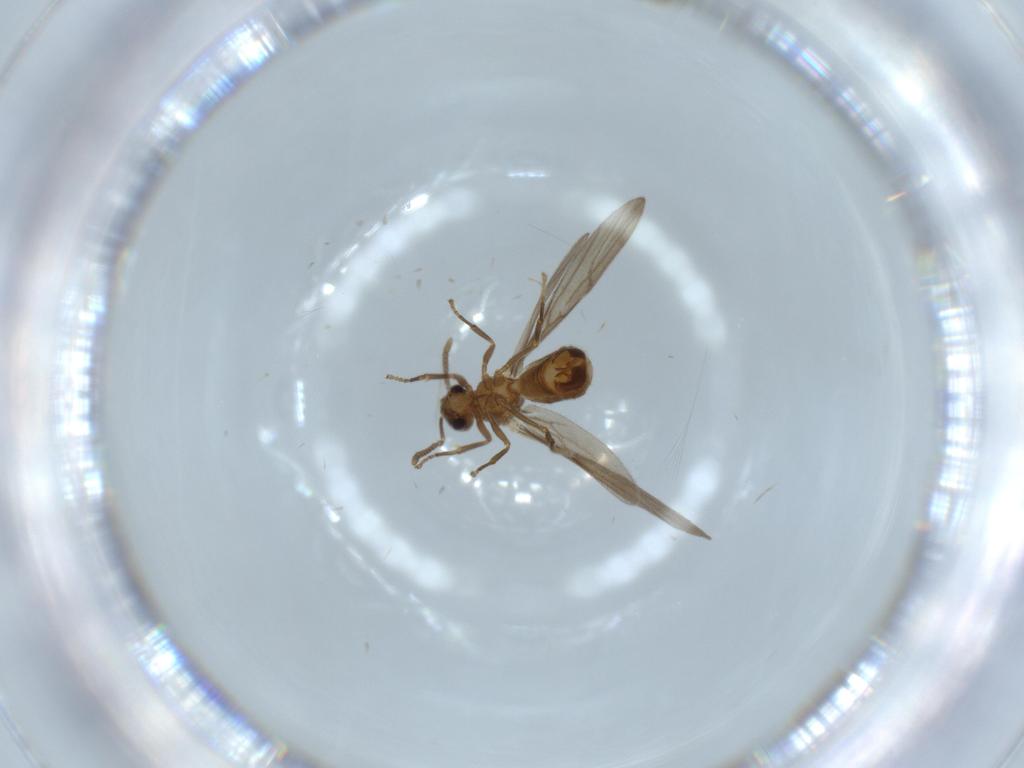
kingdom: Animalia
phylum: Arthropoda
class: Insecta
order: Hymenoptera
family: Formicidae
